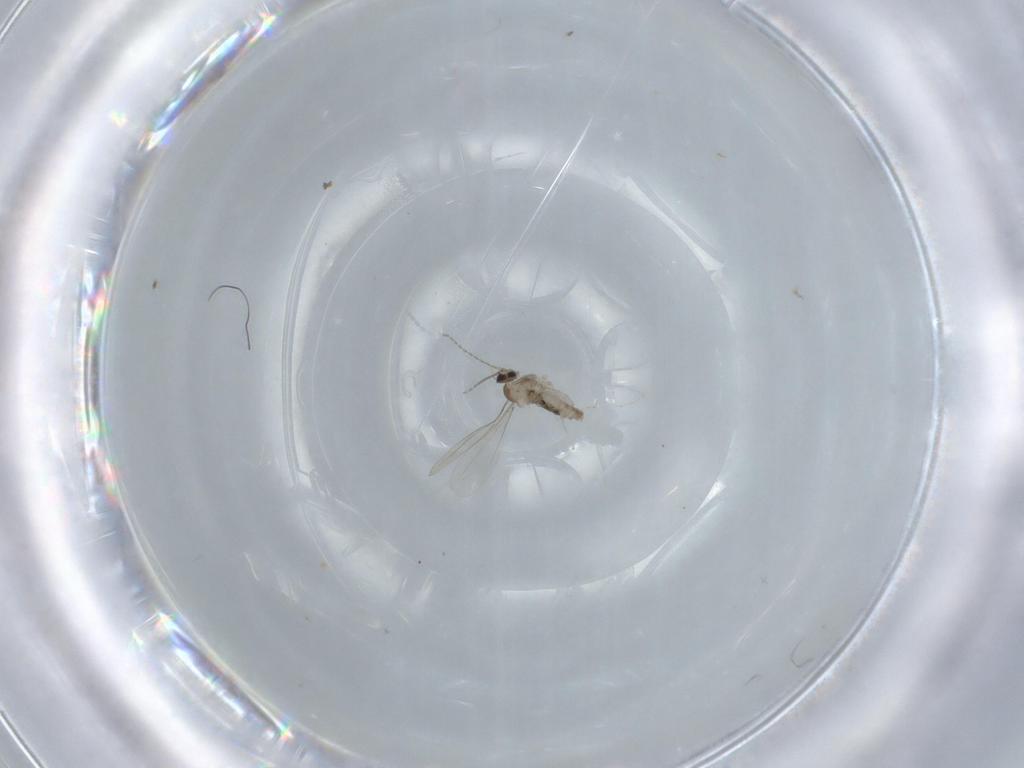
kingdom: Animalia
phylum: Arthropoda
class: Insecta
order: Diptera
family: Cecidomyiidae
